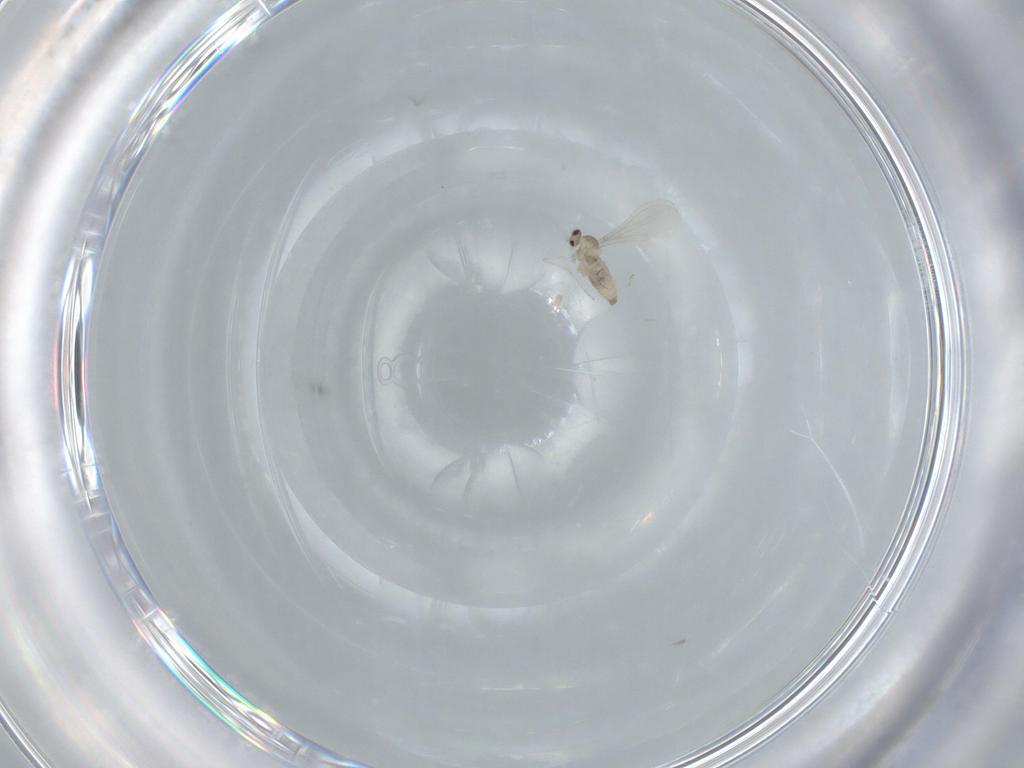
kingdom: Animalia
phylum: Arthropoda
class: Insecta
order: Diptera
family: Cecidomyiidae
